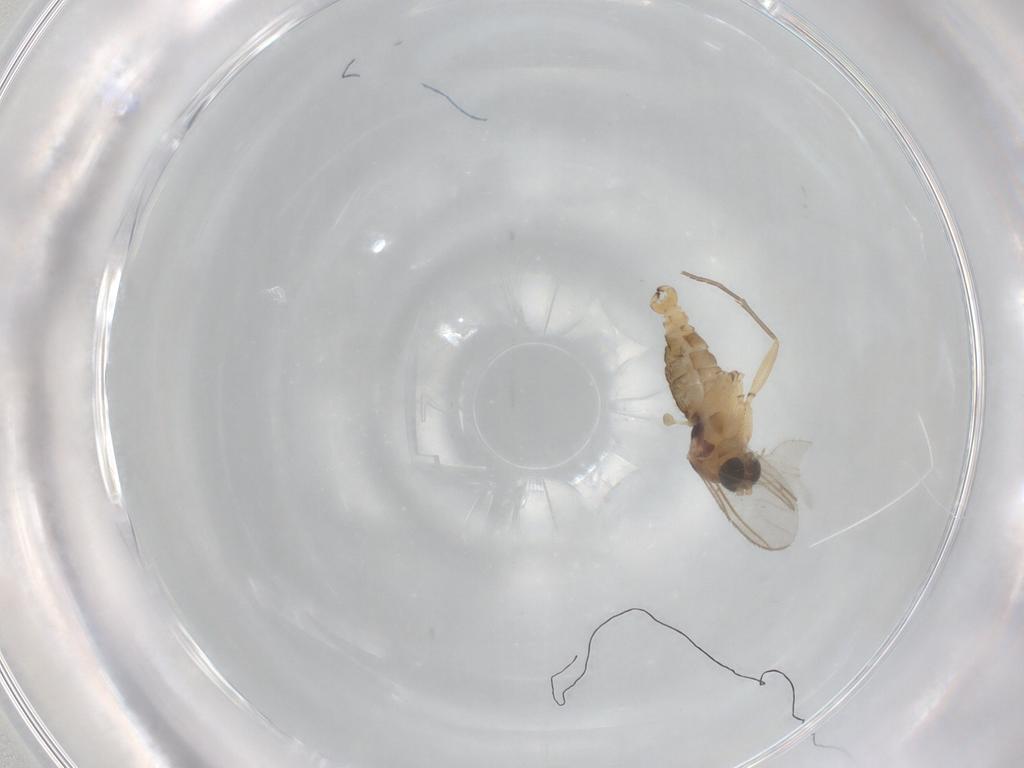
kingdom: Animalia
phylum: Arthropoda
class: Insecta
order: Diptera
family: Sciaridae
